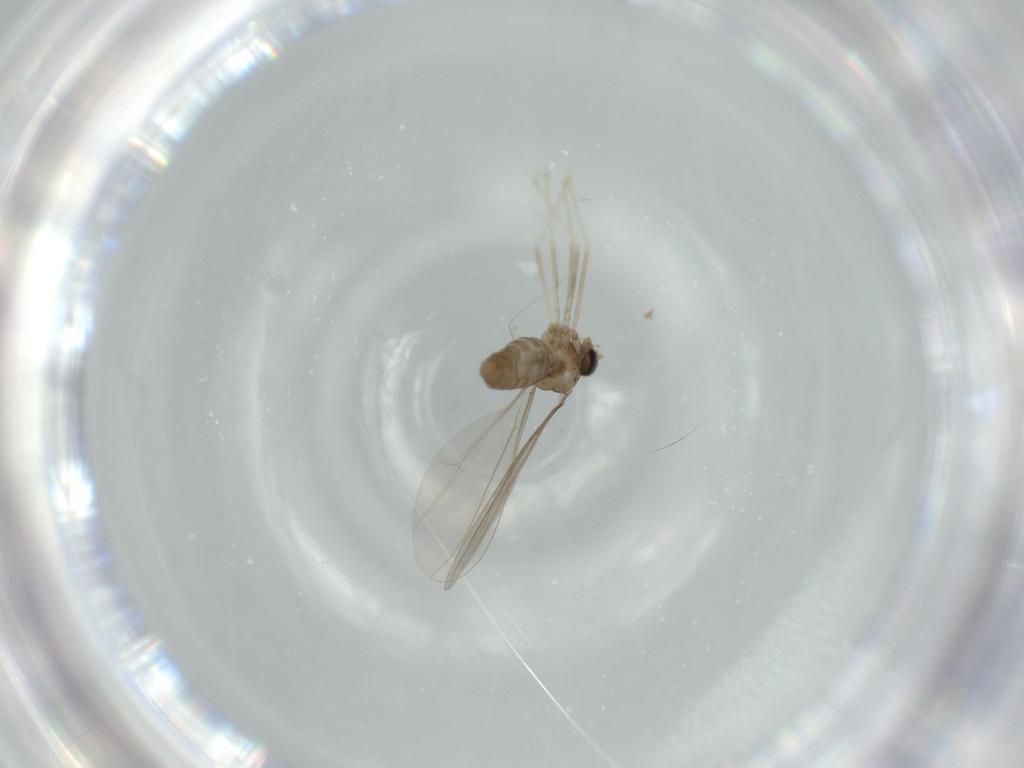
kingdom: Animalia
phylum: Arthropoda
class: Insecta
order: Diptera
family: Cecidomyiidae
